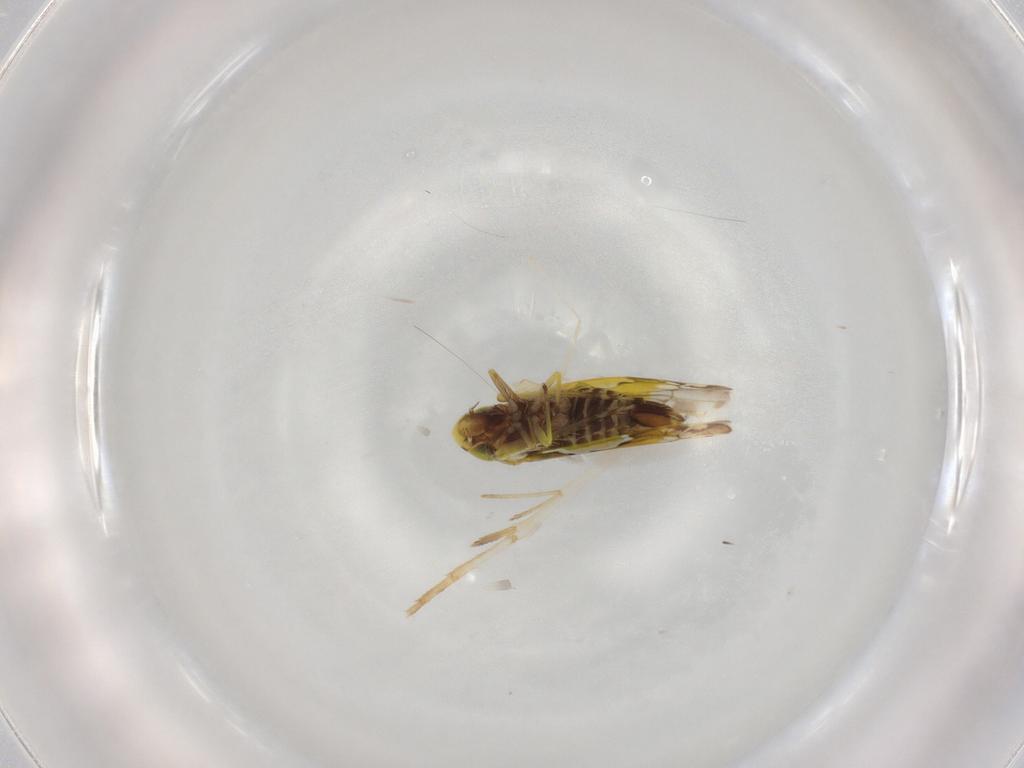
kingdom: Animalia
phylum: Arthropoda
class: Insecta
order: Hemiptera
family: Cicadellidae
